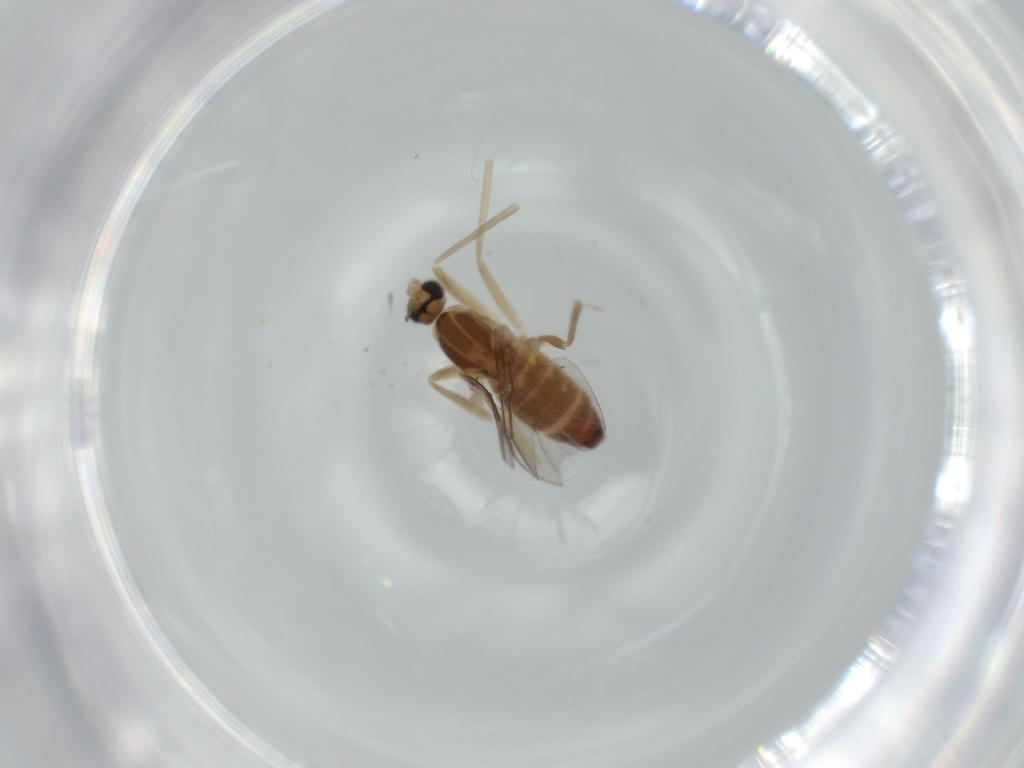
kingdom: Animalia
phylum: Arthropoda
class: Insecta
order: Diptera
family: Cecidomyiidae
